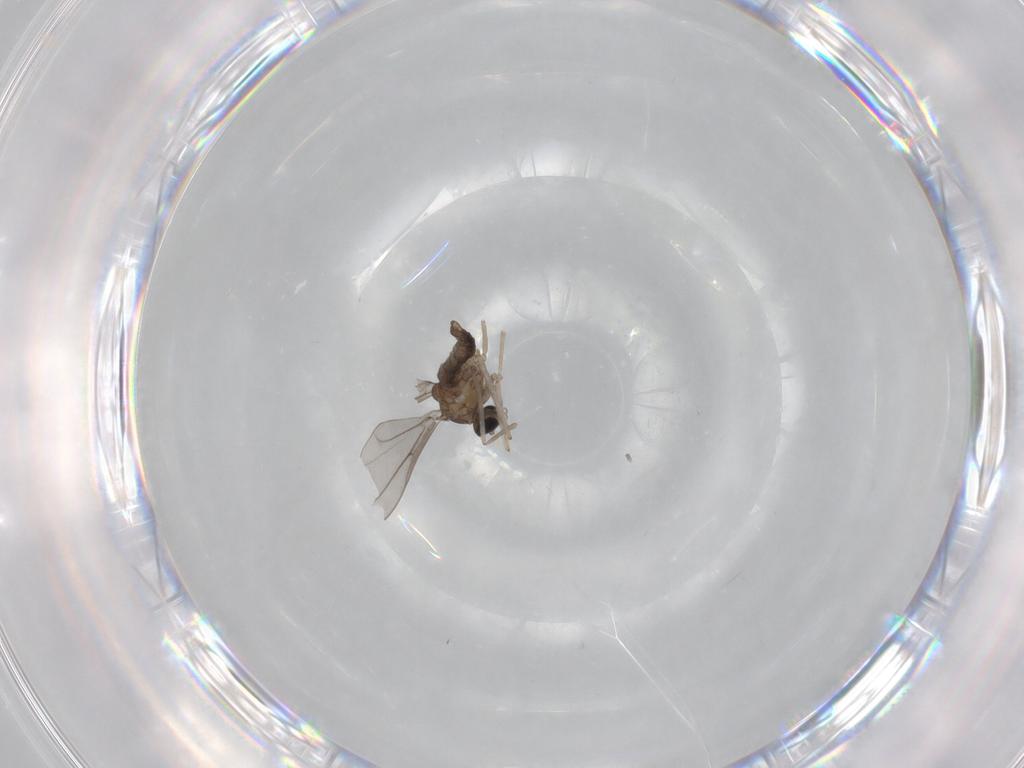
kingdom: Animalia
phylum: Arthropoda
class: Insecta
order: Diptera
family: Cecidomyiidae
